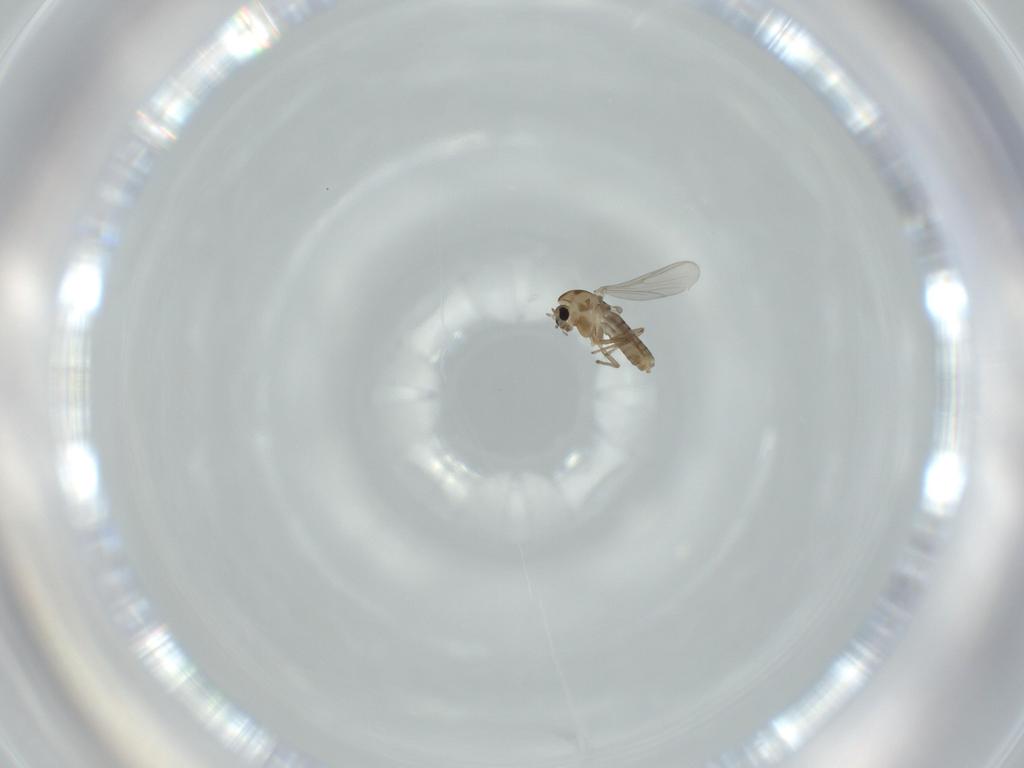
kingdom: Animalia
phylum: Arthropoda
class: Insecta
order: Diptera
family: Chironomidae
